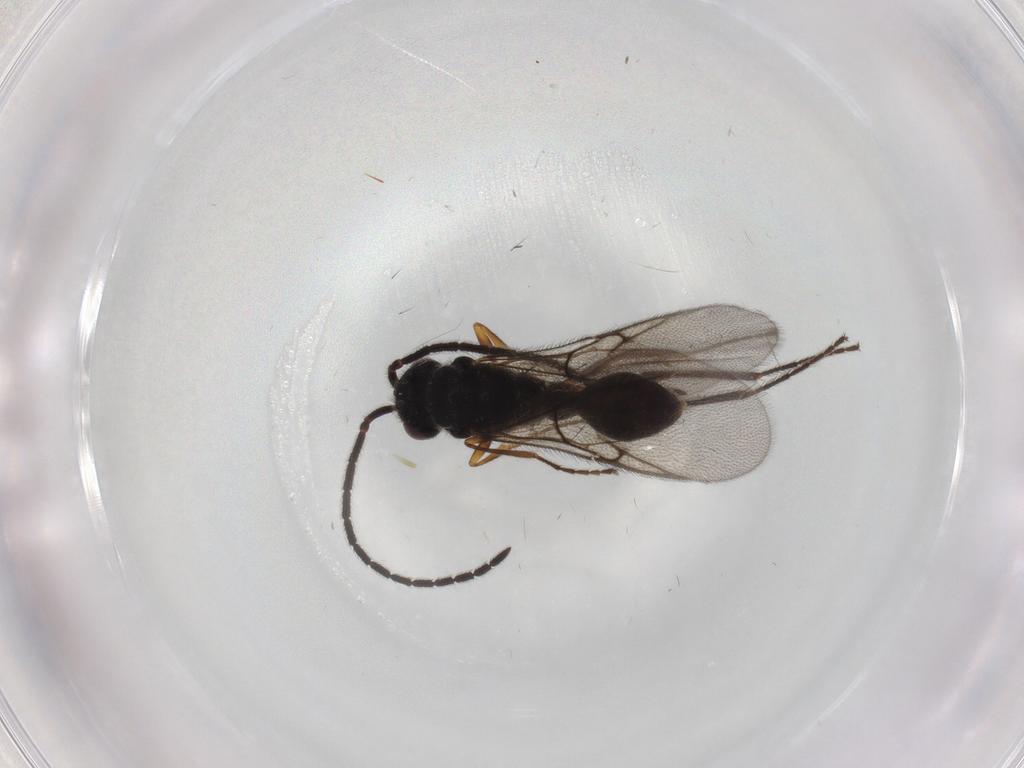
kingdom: Animalia
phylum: Arthropoda
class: Insecta
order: Hymenoptera
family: Diapriidae
